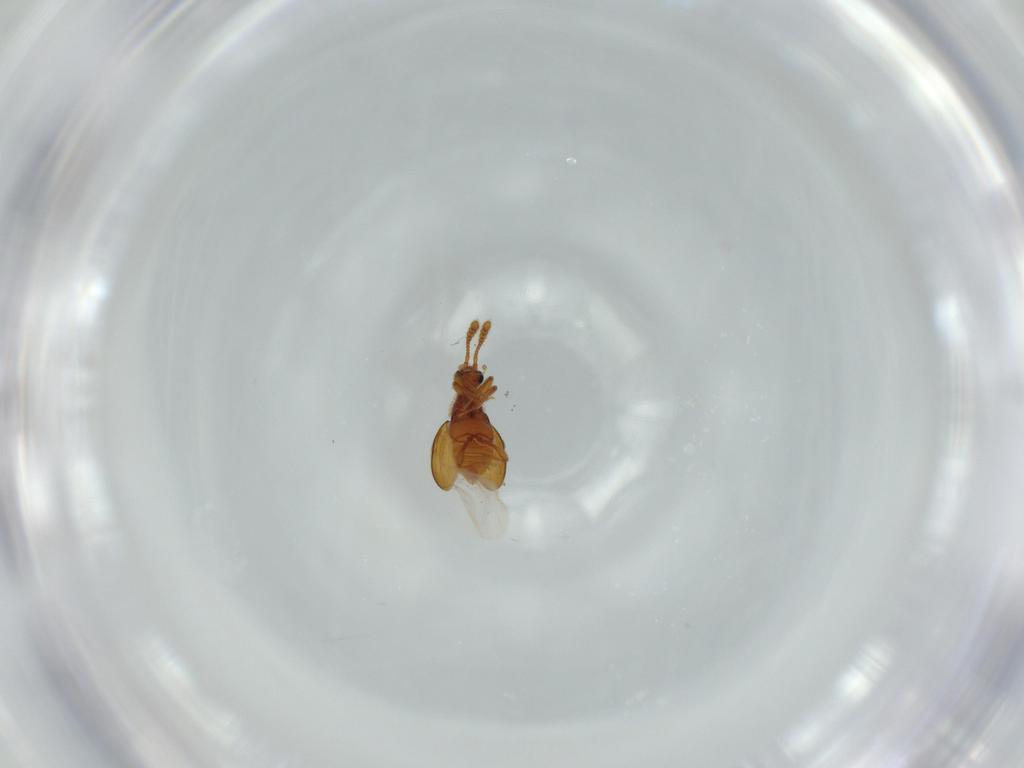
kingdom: Animalia
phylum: Arthropoda
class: Insecta
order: Coleoptera
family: Staphylinidae
